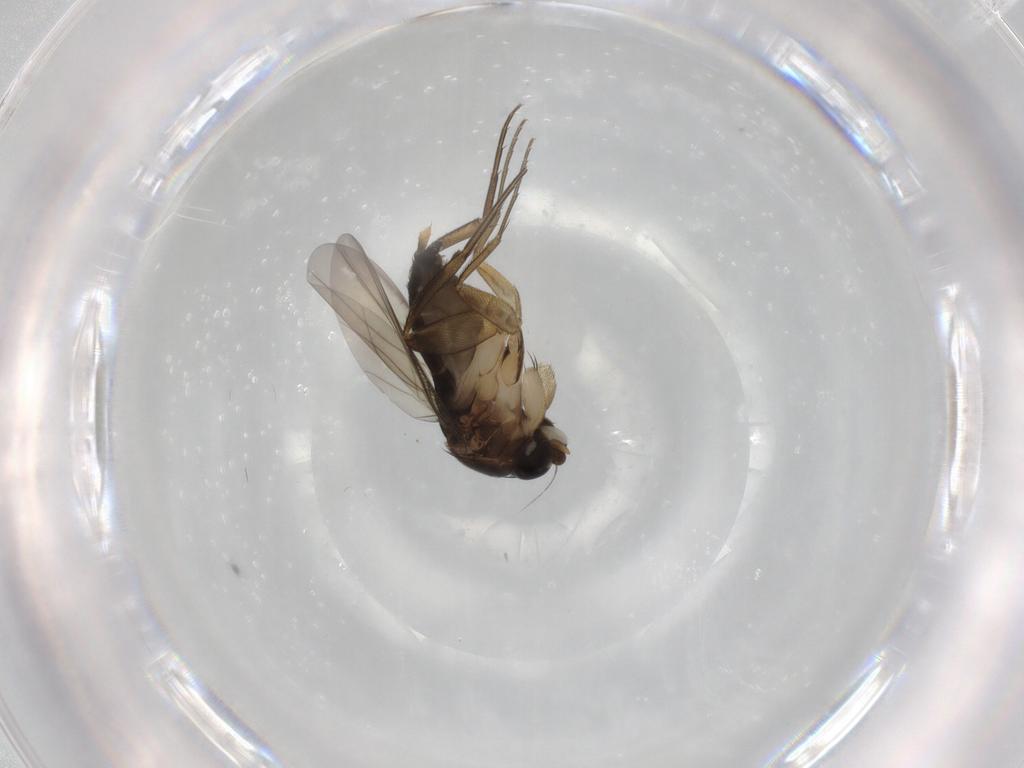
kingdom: Animalia
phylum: Arthropoda
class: Insecta
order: Diptera
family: Phoridae
